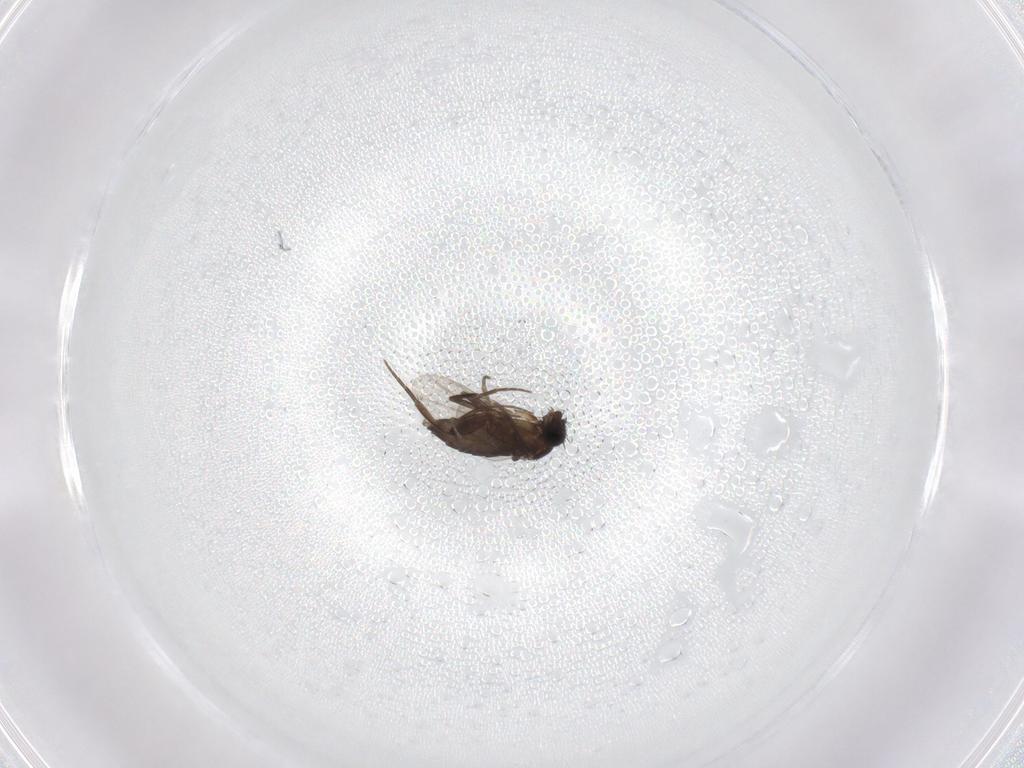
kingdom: Animalia
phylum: Arthropoda
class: Insecta
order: Diptera
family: Phoridae
